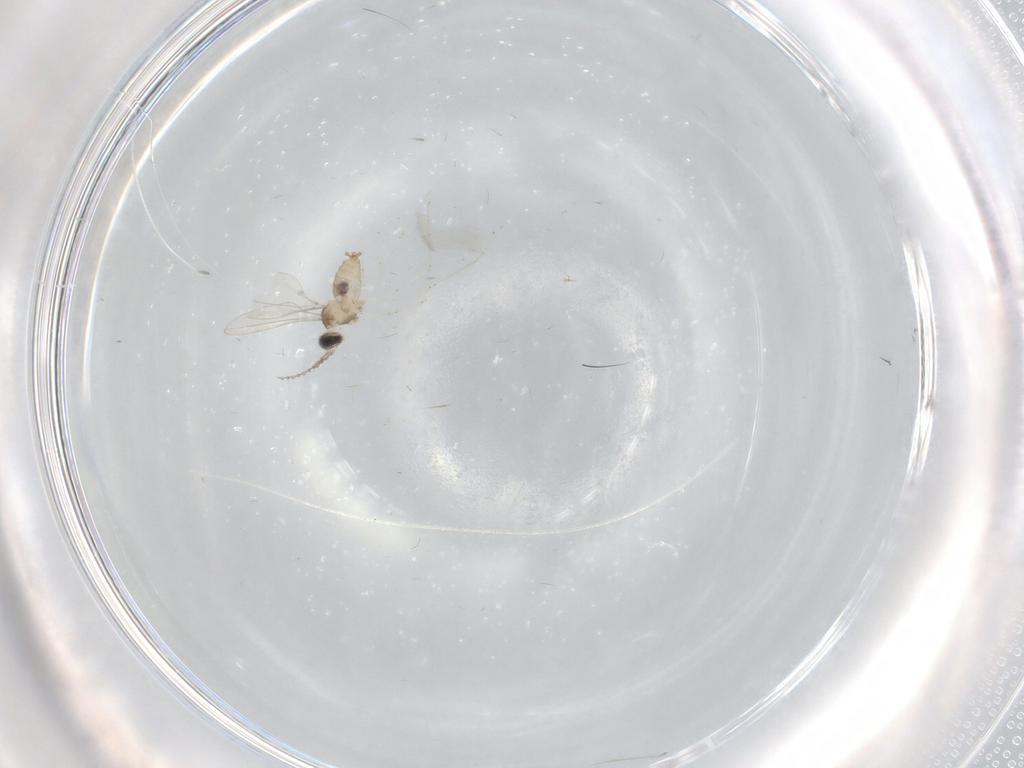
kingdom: Animalia
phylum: Arthropoda
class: Insecta
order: Diptera
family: Cecidomyiidae
